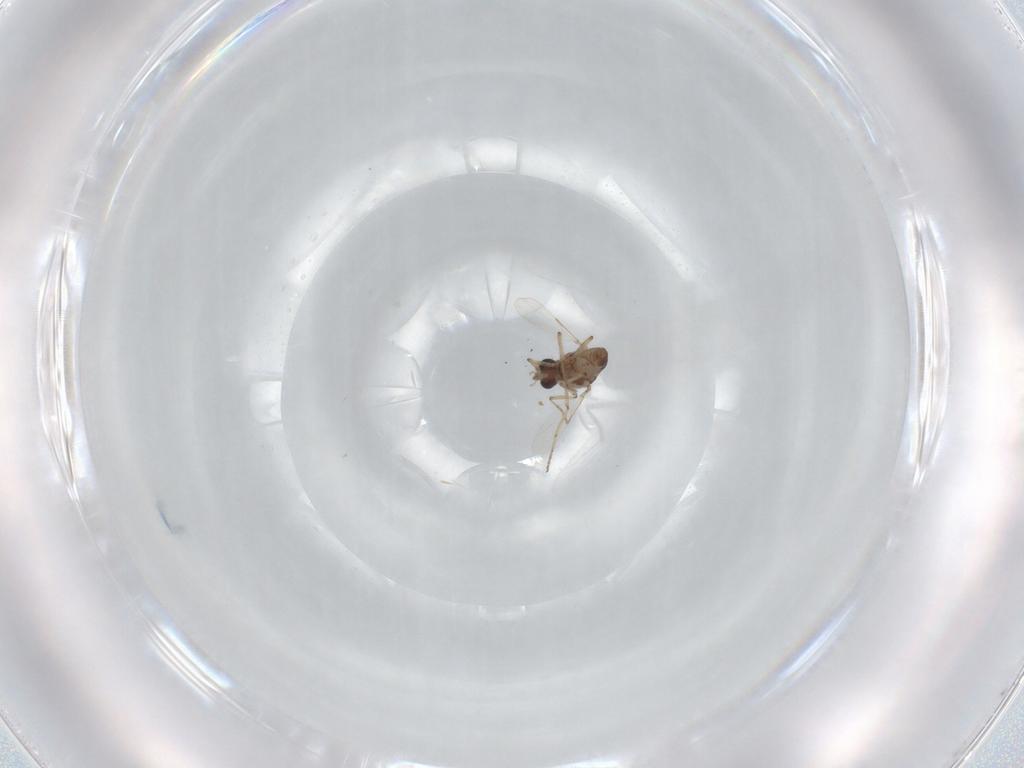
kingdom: Animalia
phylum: Arthropoda
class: Insecta
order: Diptera
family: Ceratopogonidae
